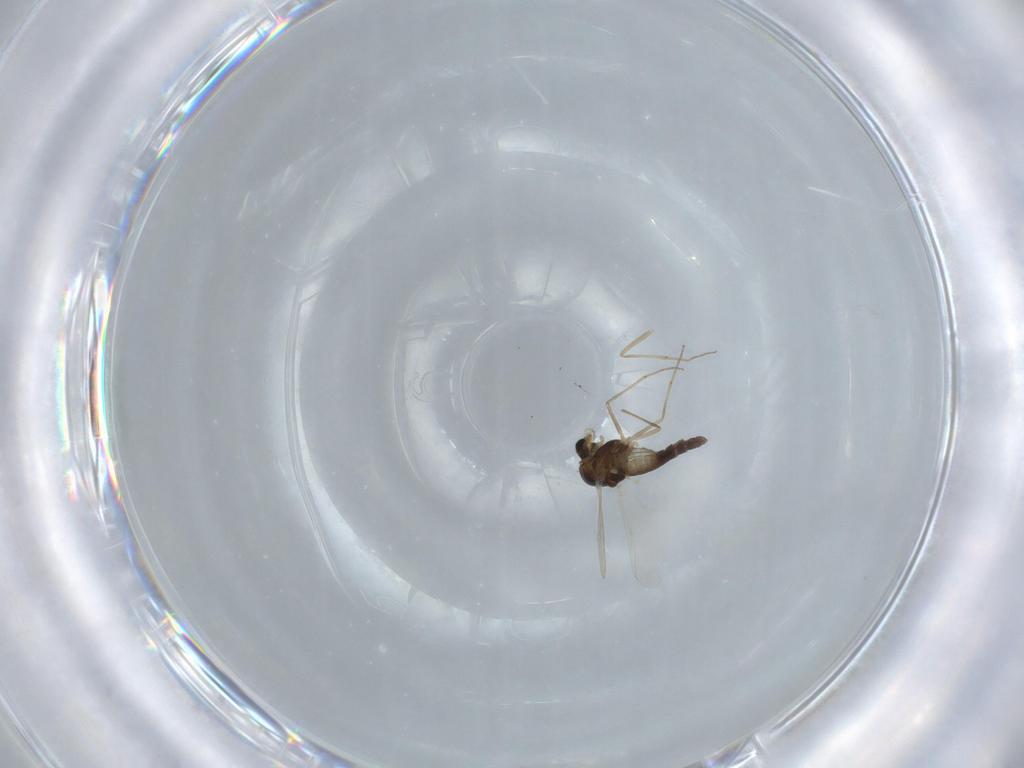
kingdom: Animalia
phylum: Arthropoda
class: Insecta
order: Diptera
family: Chironomidae
